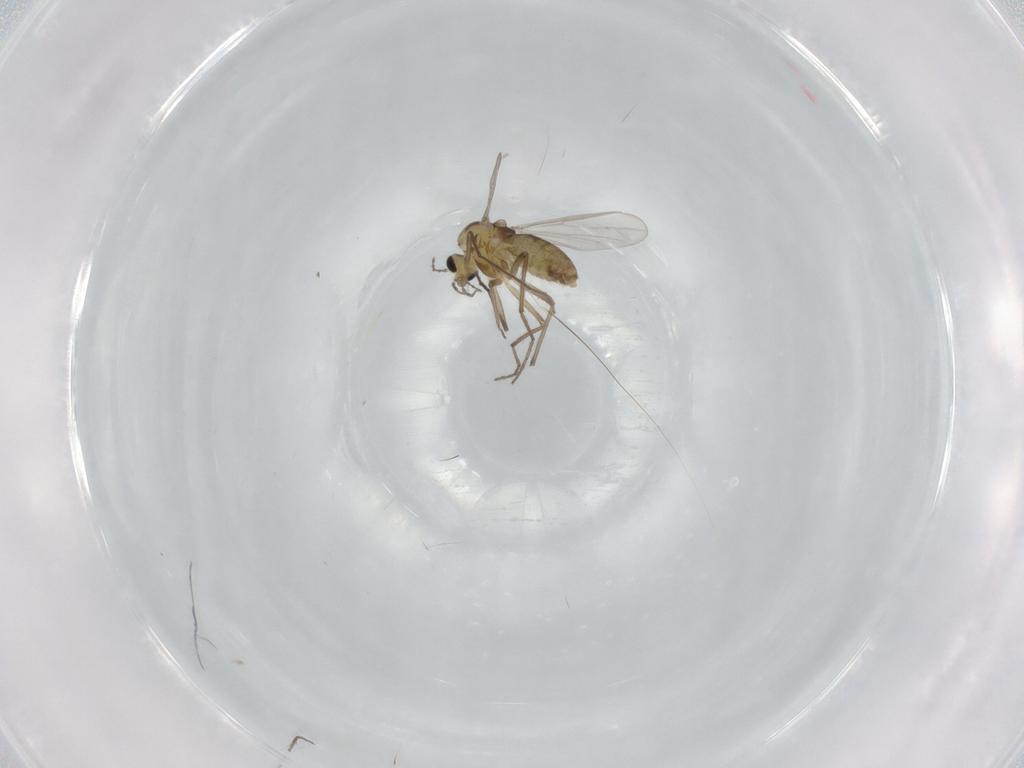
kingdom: Animalia
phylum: Arthropoda
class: Insecta
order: Diptera
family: Chironomidae
